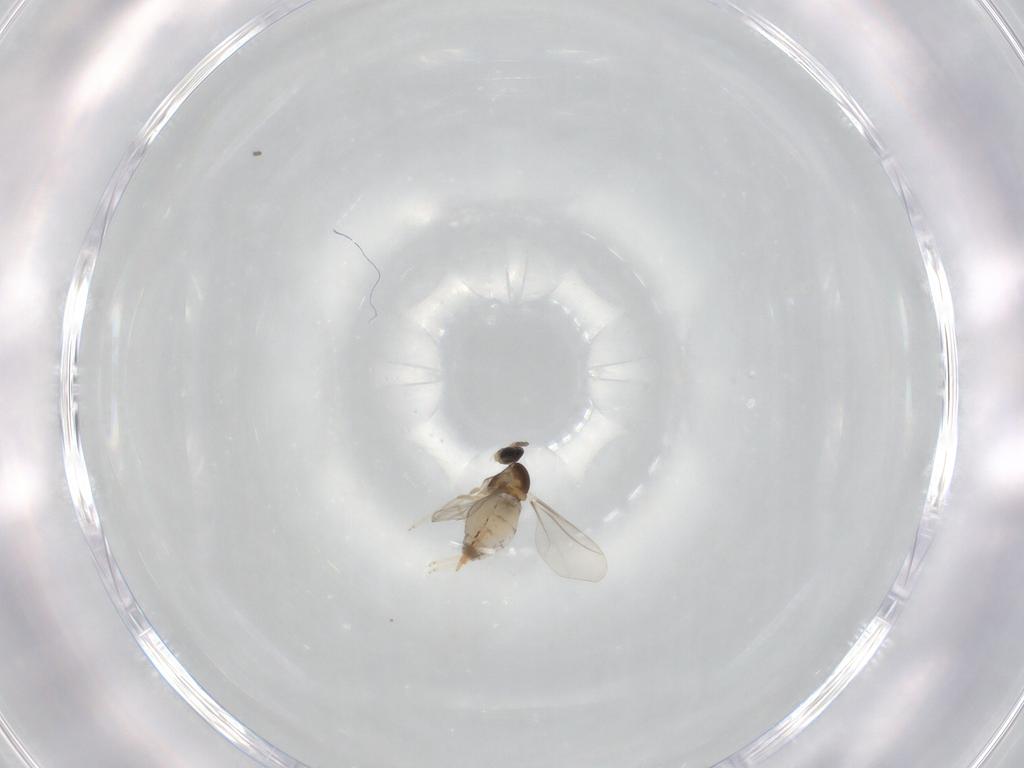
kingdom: Animalia
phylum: Arthropoda
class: Insecta
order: Diptera
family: Cecidomyiidae
